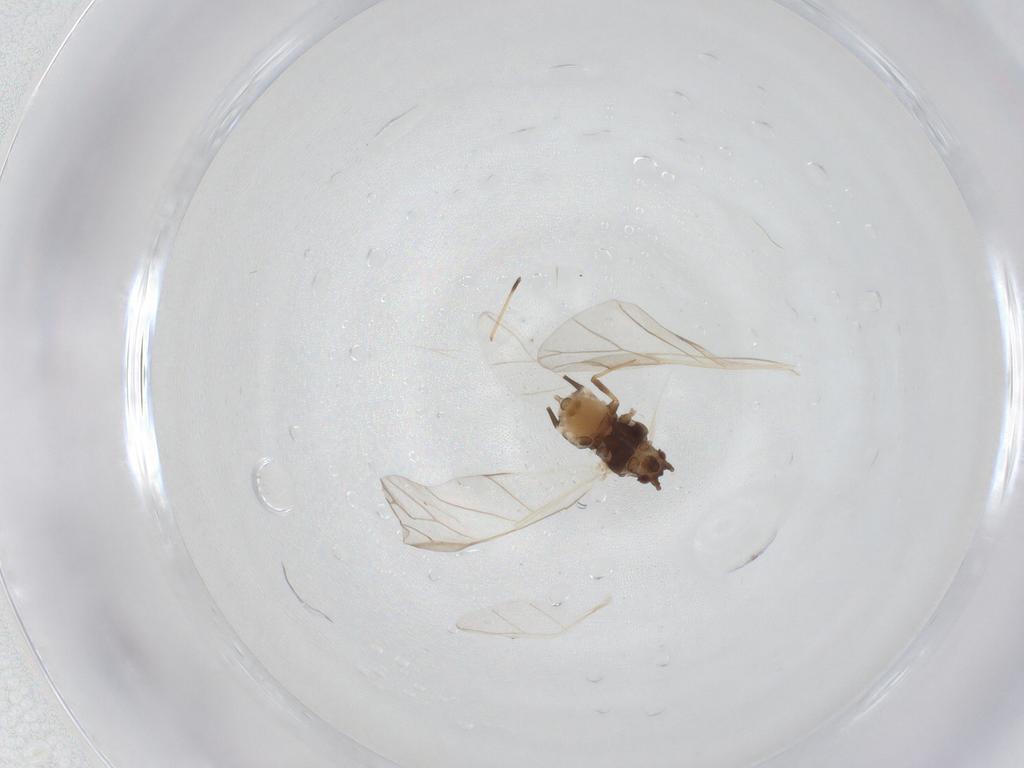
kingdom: Animalia
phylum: Arthropoda
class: Insecta
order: Hemiptera
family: Aphididae
